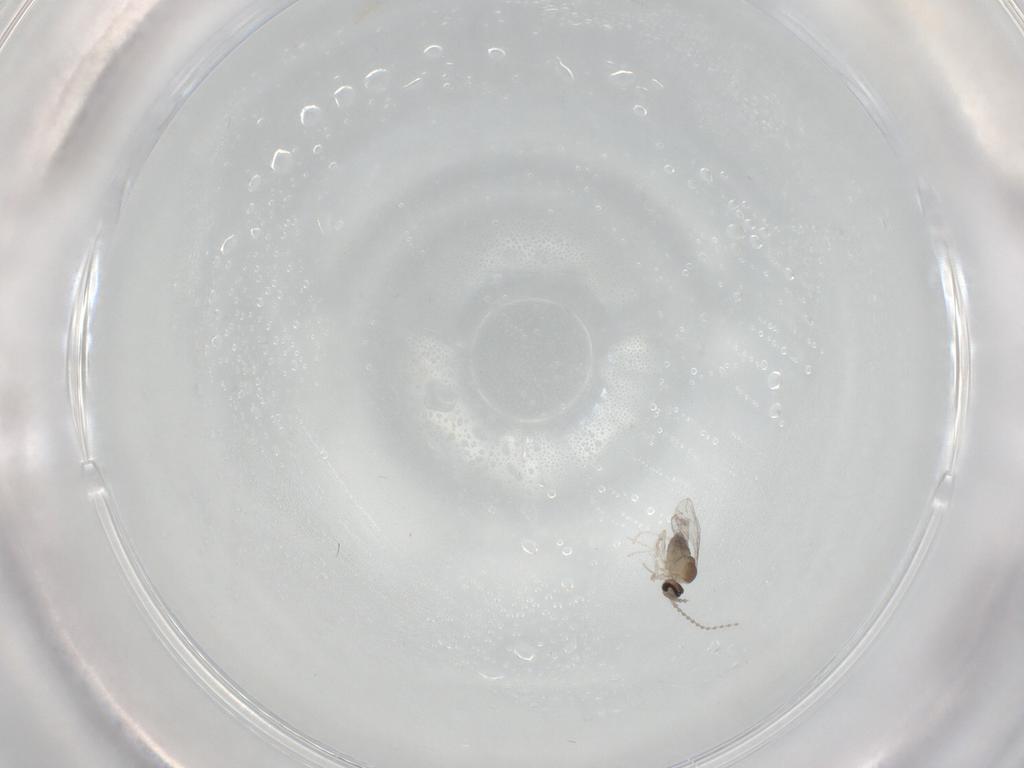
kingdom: Animalia
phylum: Arthropoda
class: Insecta
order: Diptera
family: Cecidomyiidae
